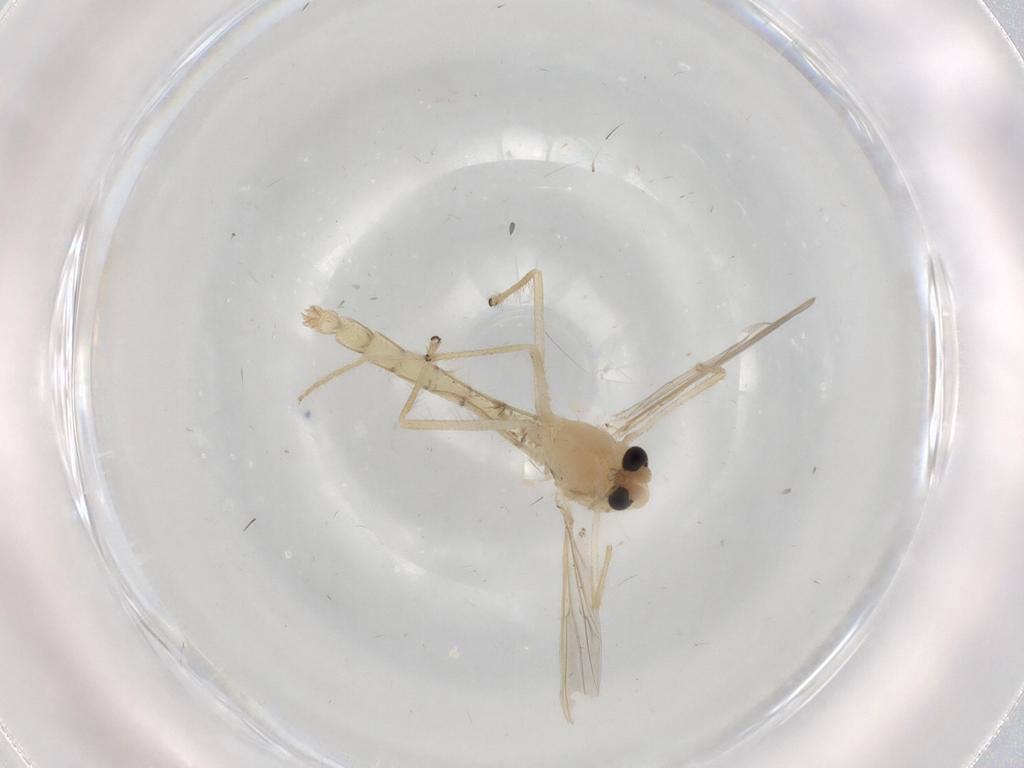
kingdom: Animalia
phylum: Arthropoda
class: Insecta
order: Diptera
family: Chironomidae
